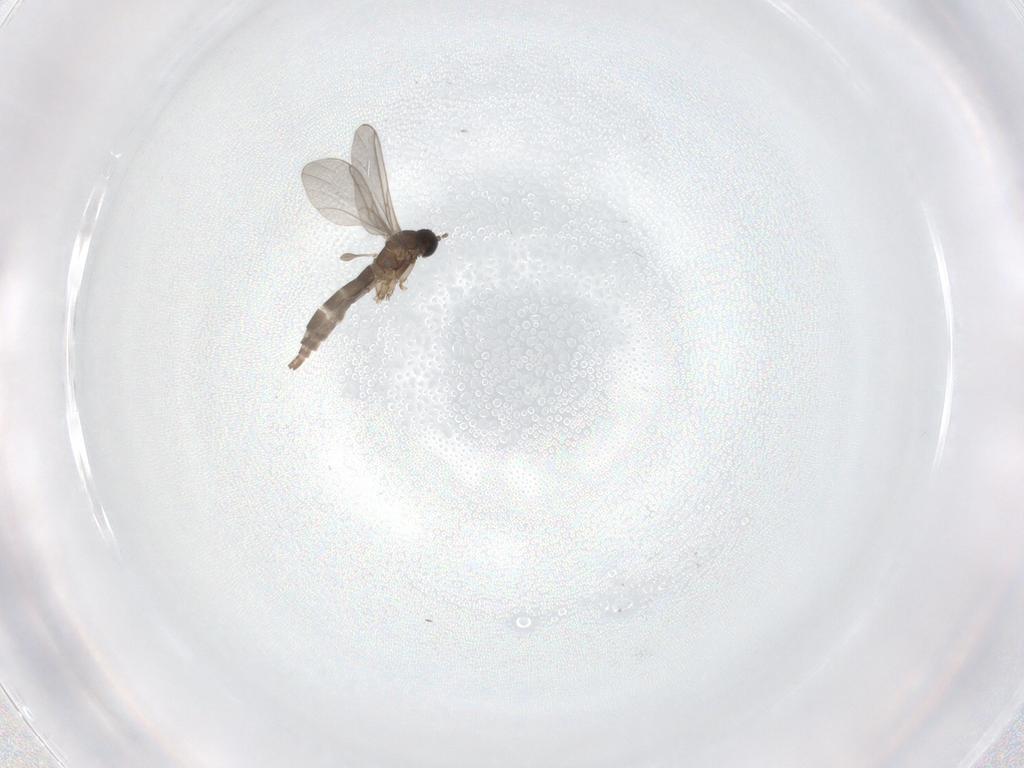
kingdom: Animalia
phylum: Arthropoda
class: Insecta
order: Diptera
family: Sciaridae
